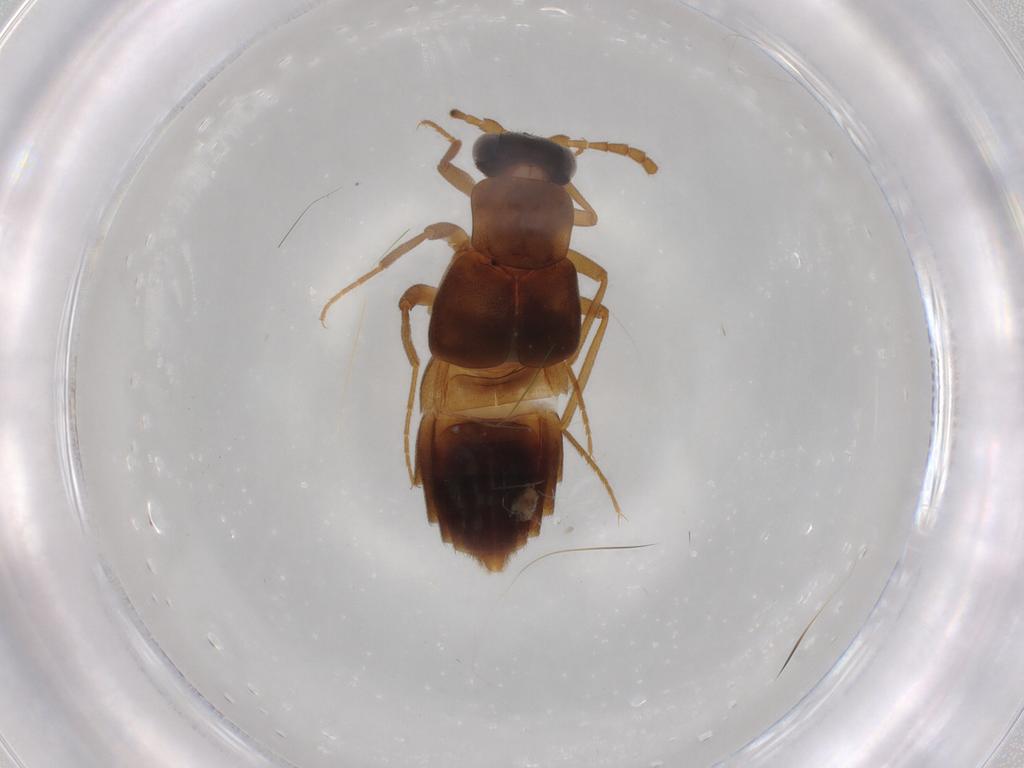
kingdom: Animalia
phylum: Arthropoda
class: Insecta
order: Coleoptera
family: Staphylinidae
